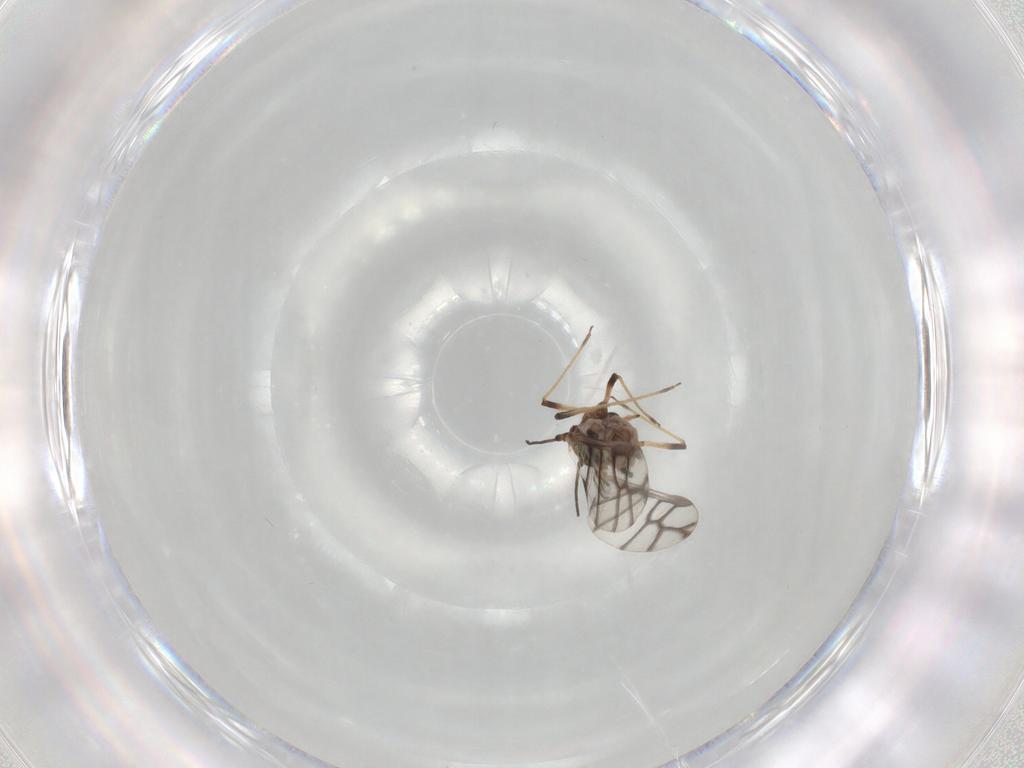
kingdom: Animalia
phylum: Arthropoda
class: Insecta
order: Hemiptera
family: Aphididae
